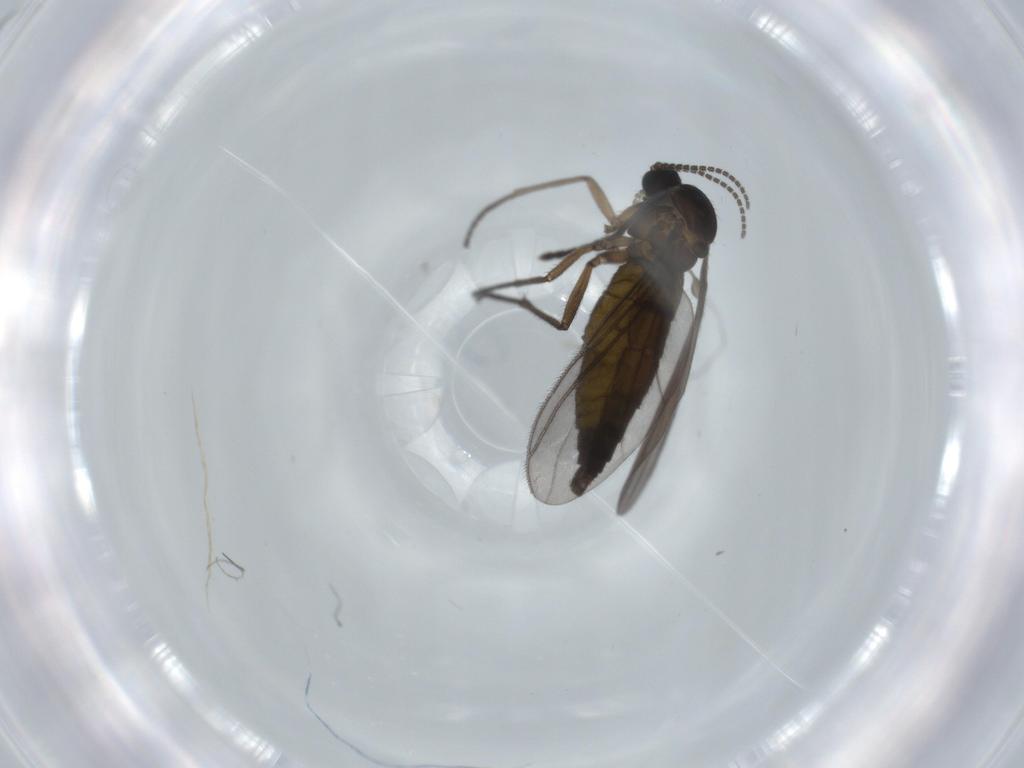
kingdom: Animalia
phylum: Arthropoda
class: Insecta
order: Diptera
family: Sciaridae
